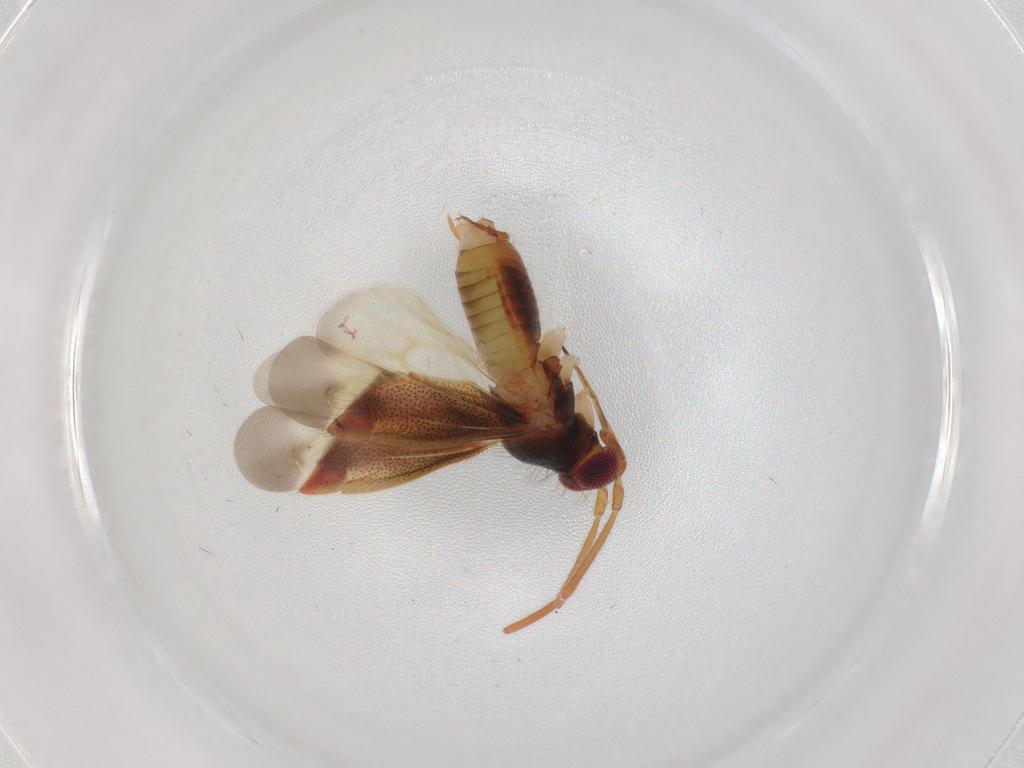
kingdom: Animalia
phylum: Arthropoda
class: Insecta
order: Hemiptera
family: Miridae
